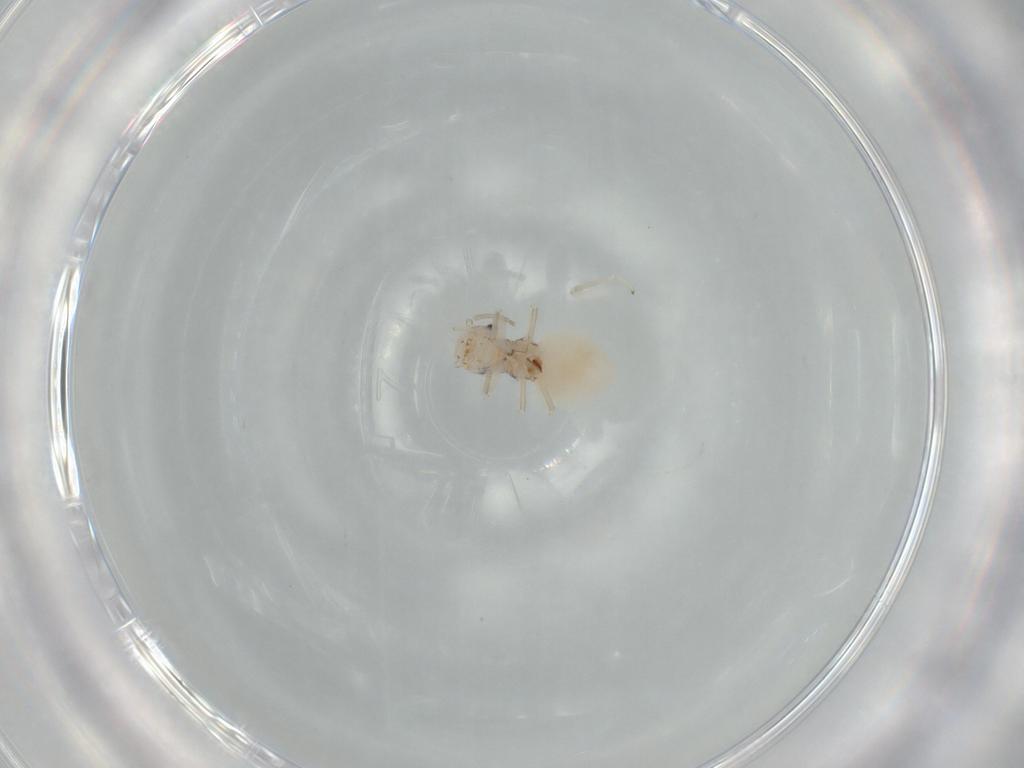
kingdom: Animalia
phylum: Arthropoda
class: Insecta
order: Psocodea
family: Amphipsocidae
